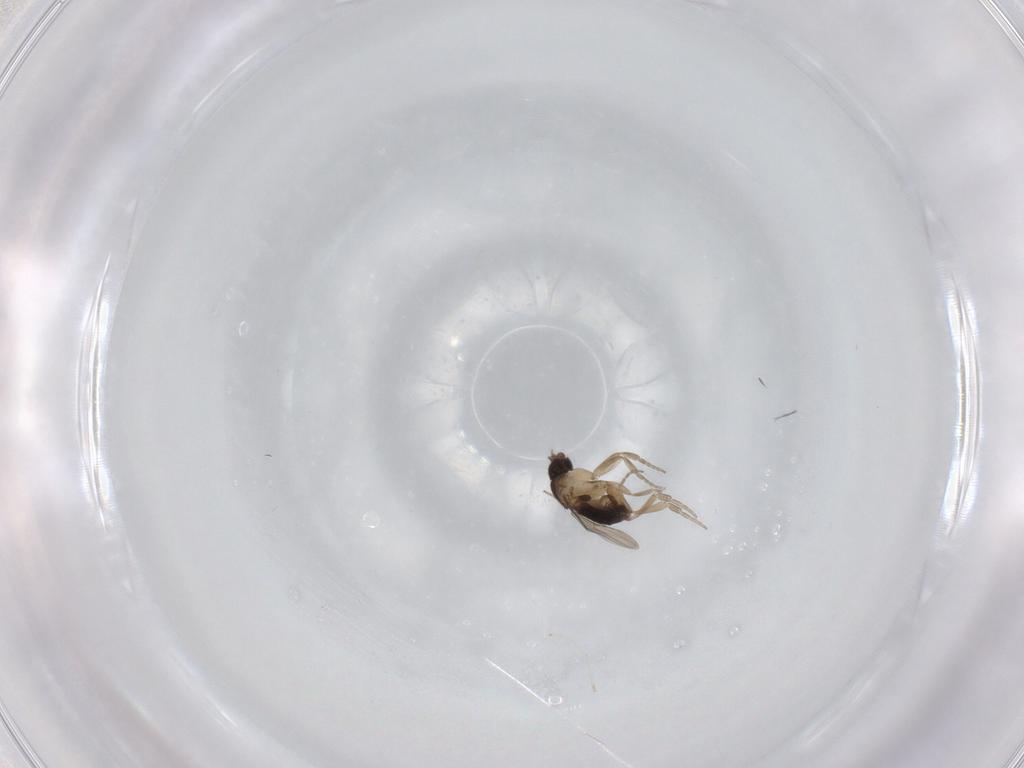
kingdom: Animalia
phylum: Arthropoda
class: Insecta
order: Diptera
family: Phoridae
